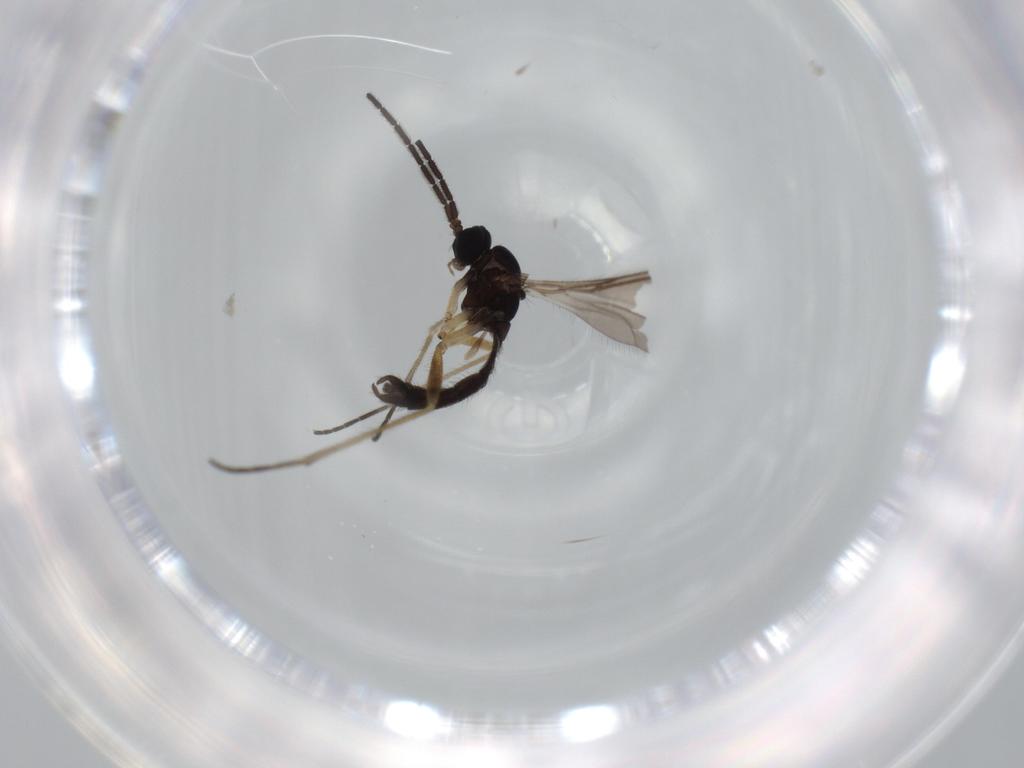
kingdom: Animalia
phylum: Arthropoda
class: Insecta
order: Diptera
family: Sciaridae
